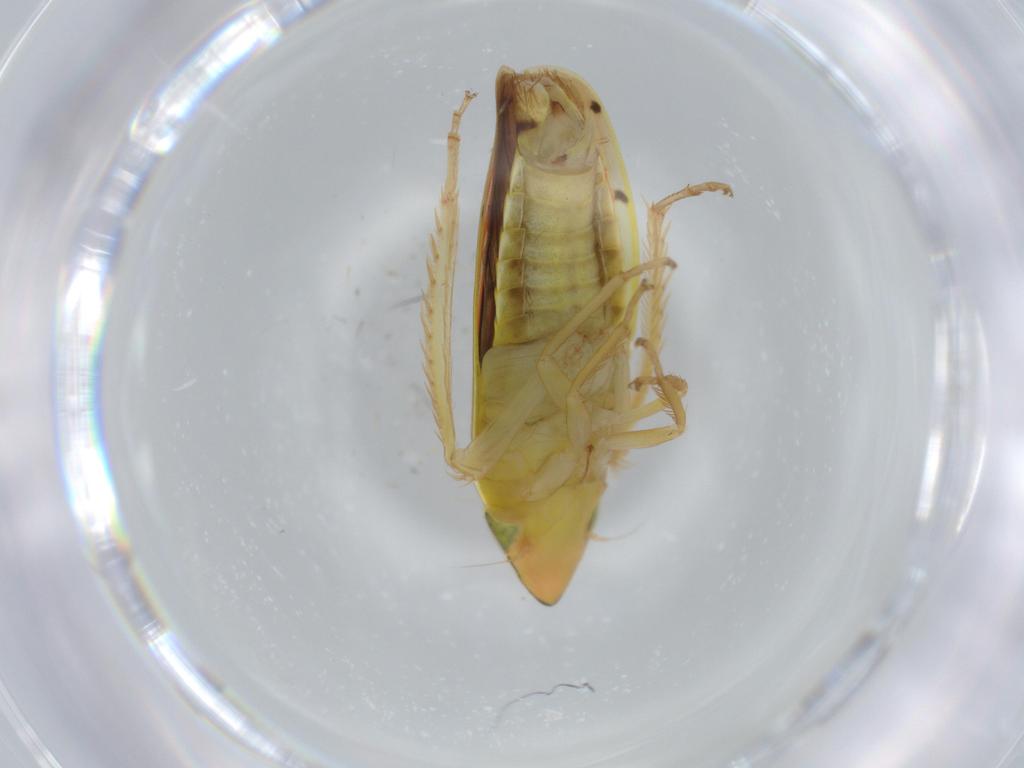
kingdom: Animalia
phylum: Arthropoda
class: Insecta
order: Hemiptera
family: Cicadellidae
